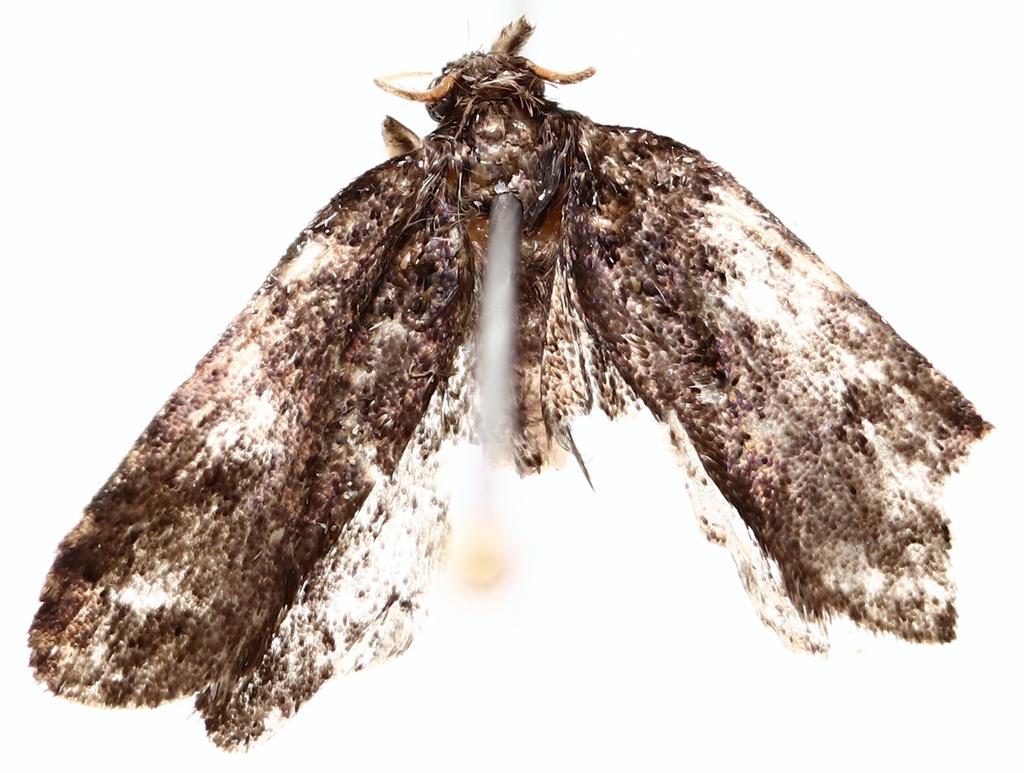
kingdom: Animalia
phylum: Arthropoda
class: Insecta
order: Diptera
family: Chironomidae
